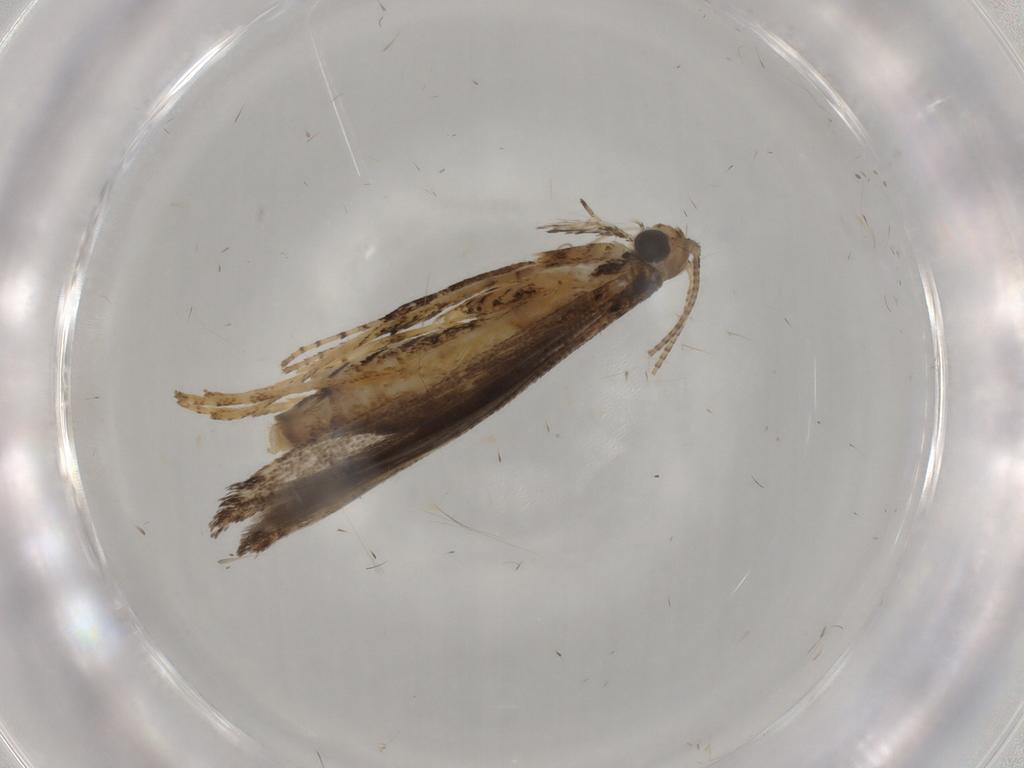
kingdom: Animalia
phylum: Arthropoda
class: Insecta
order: Lepidoptera
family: Gracillariidae
